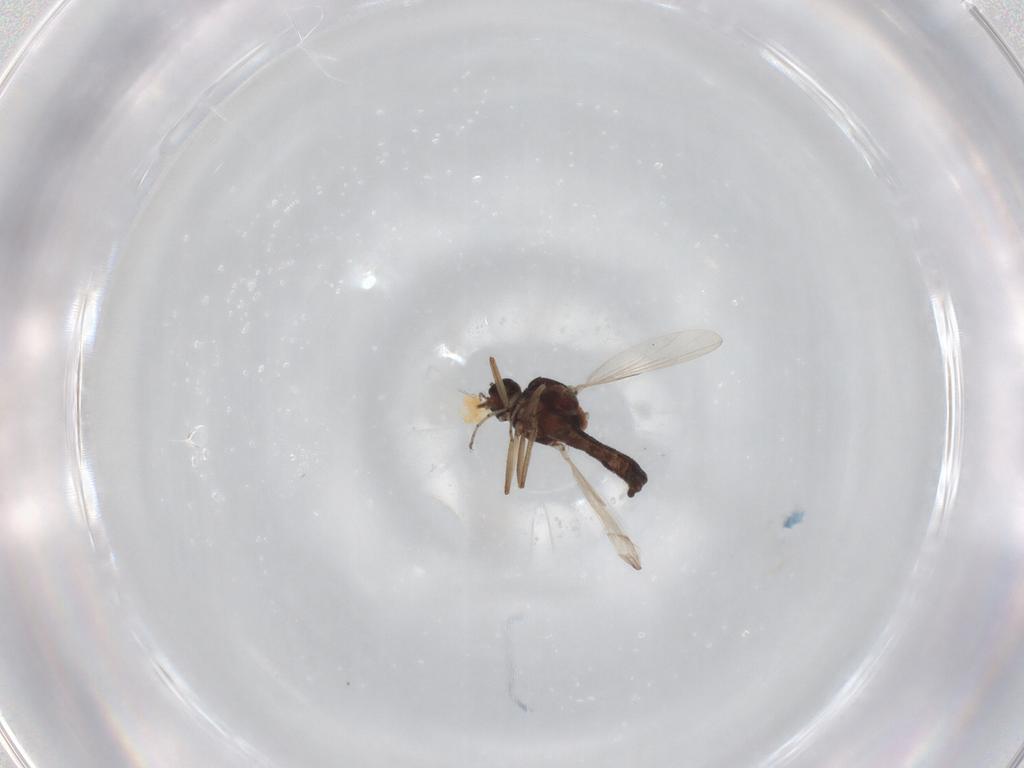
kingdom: Animalia
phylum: Arthropoda
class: Insecta
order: Diptera
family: Ceratopogonidae
